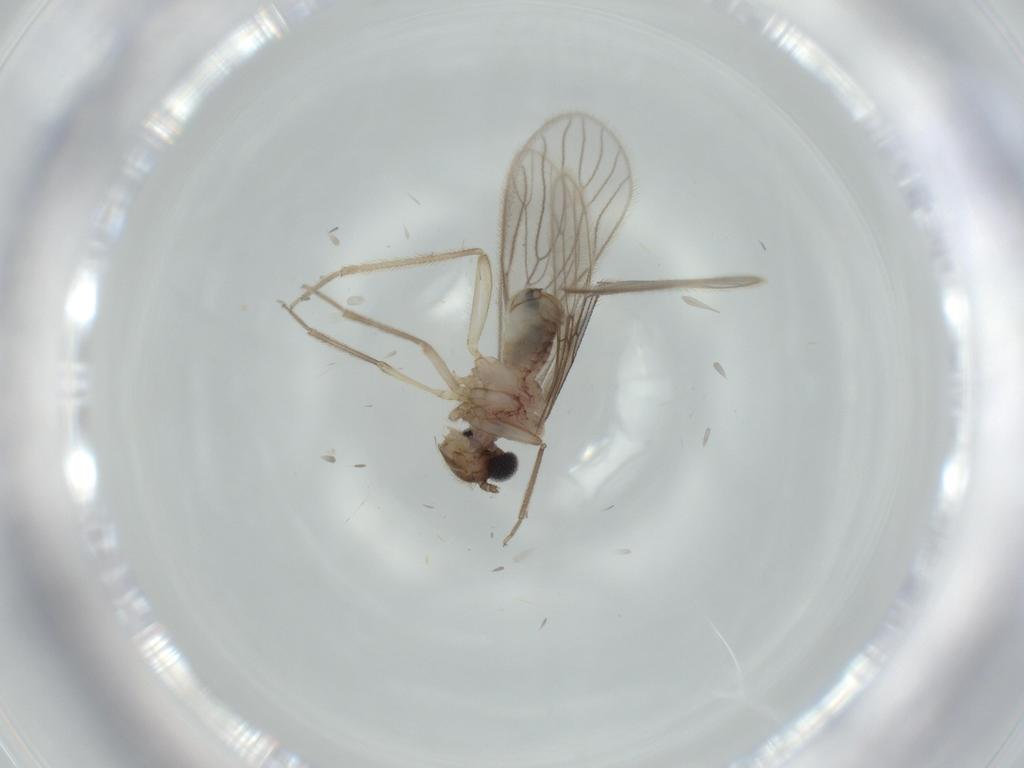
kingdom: Animalia
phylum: Arthropoda
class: Insecta
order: Psocodea
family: Cladiopsocidae
